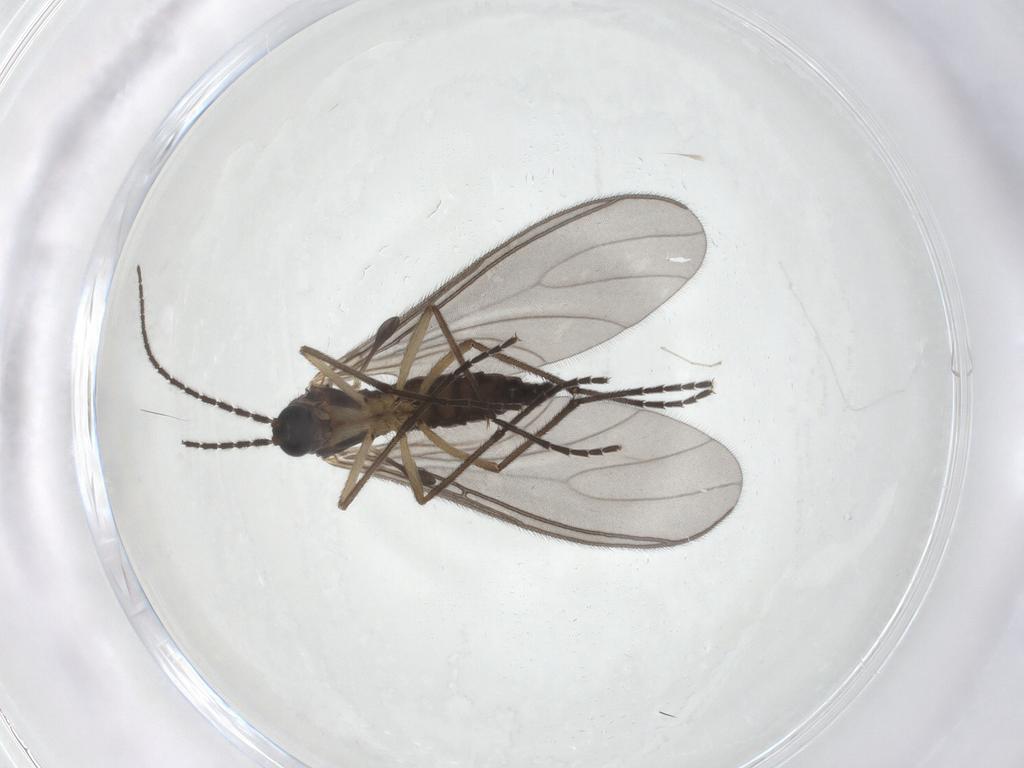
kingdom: Animalia
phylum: Arthropoda
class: Insecta
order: Diptera
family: Sciaridae
